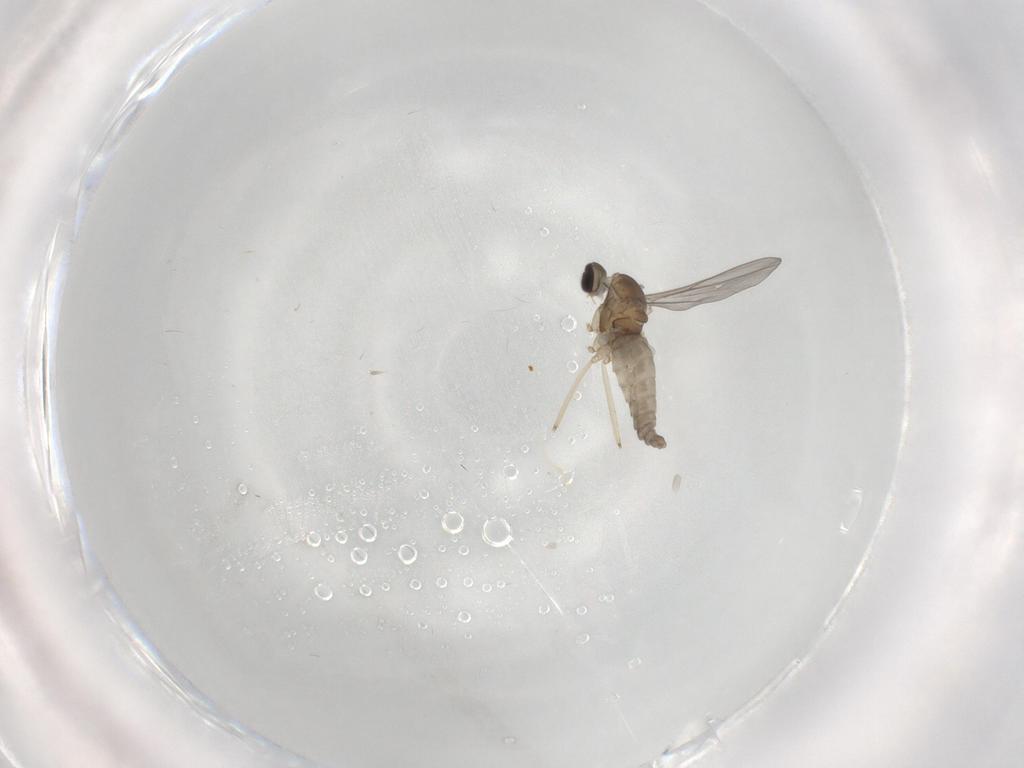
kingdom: Animalia
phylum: Arthropoda
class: Insecta
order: Diptera
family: Cecidomyiidae
